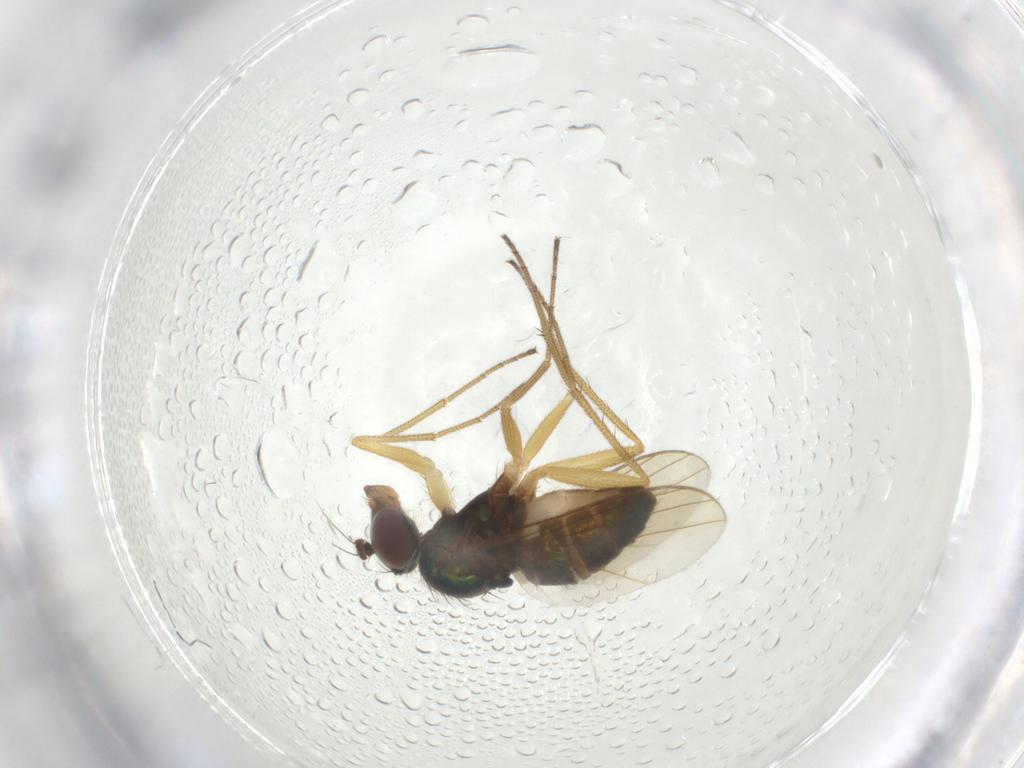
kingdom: Animalia
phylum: Arthropoda
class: Insecta
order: Diptera
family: Dolichopodidae
